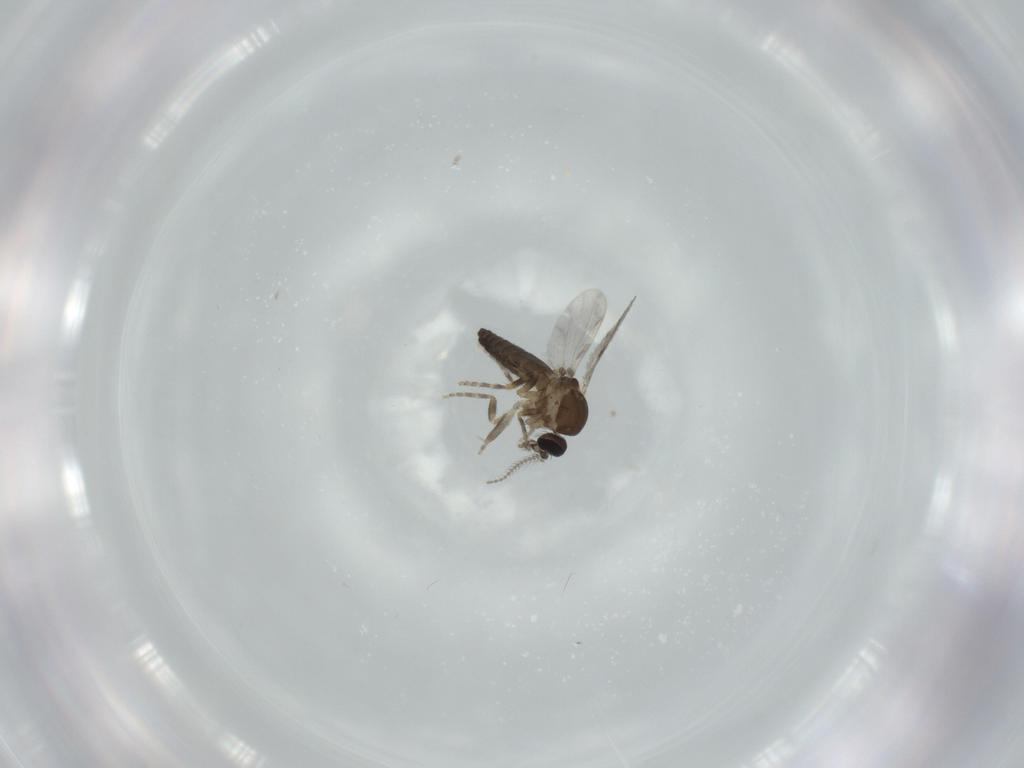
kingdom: Animalia
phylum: Arthropoda
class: Insecta
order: Diptera
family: Ceratopogonidae
